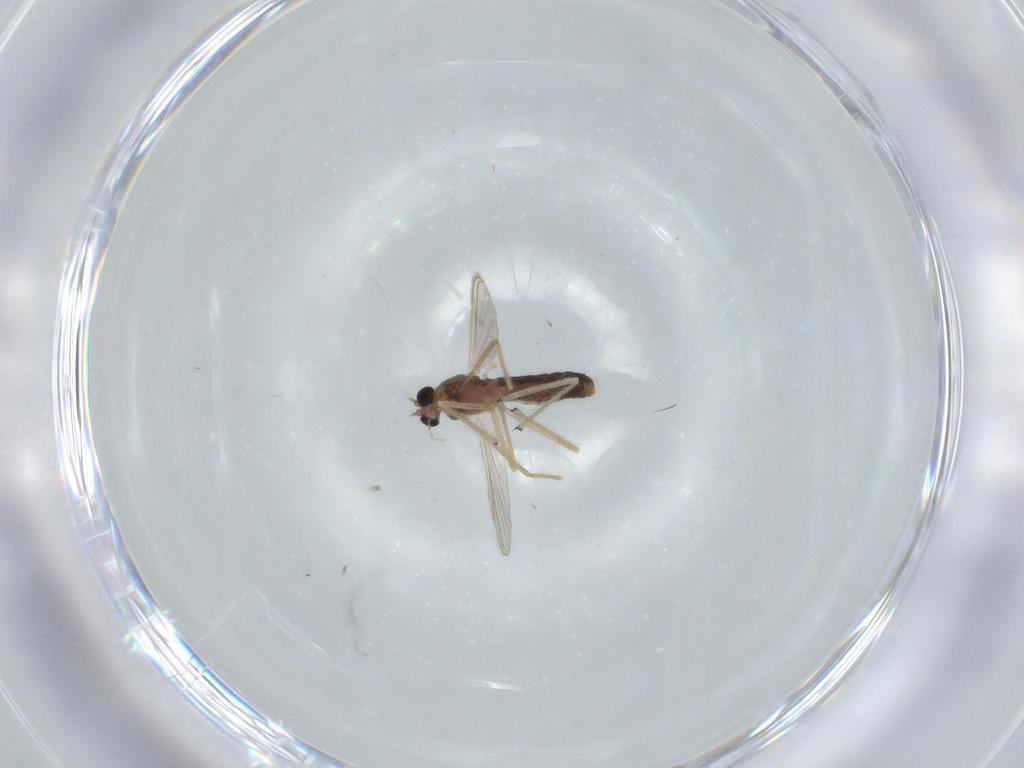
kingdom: Animalia
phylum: Arthropoda
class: Insecta
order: Diptera
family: Chironomidae
